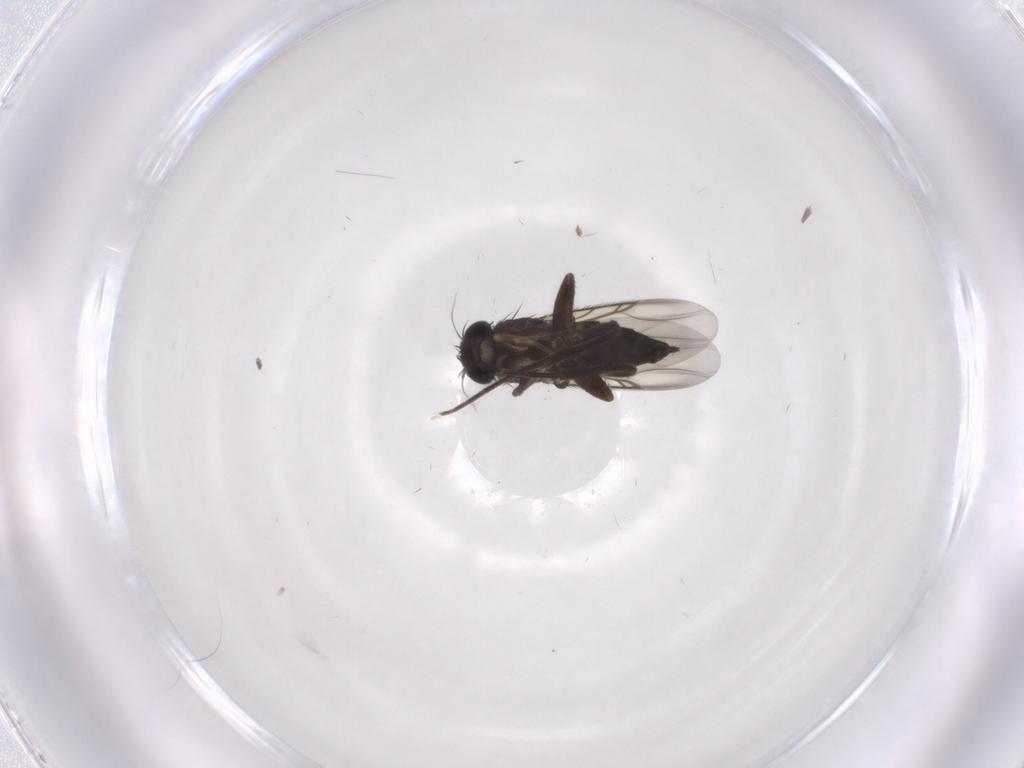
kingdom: Animalia
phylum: Arthropoda
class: Insecta
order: Diptera
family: Phoridae
